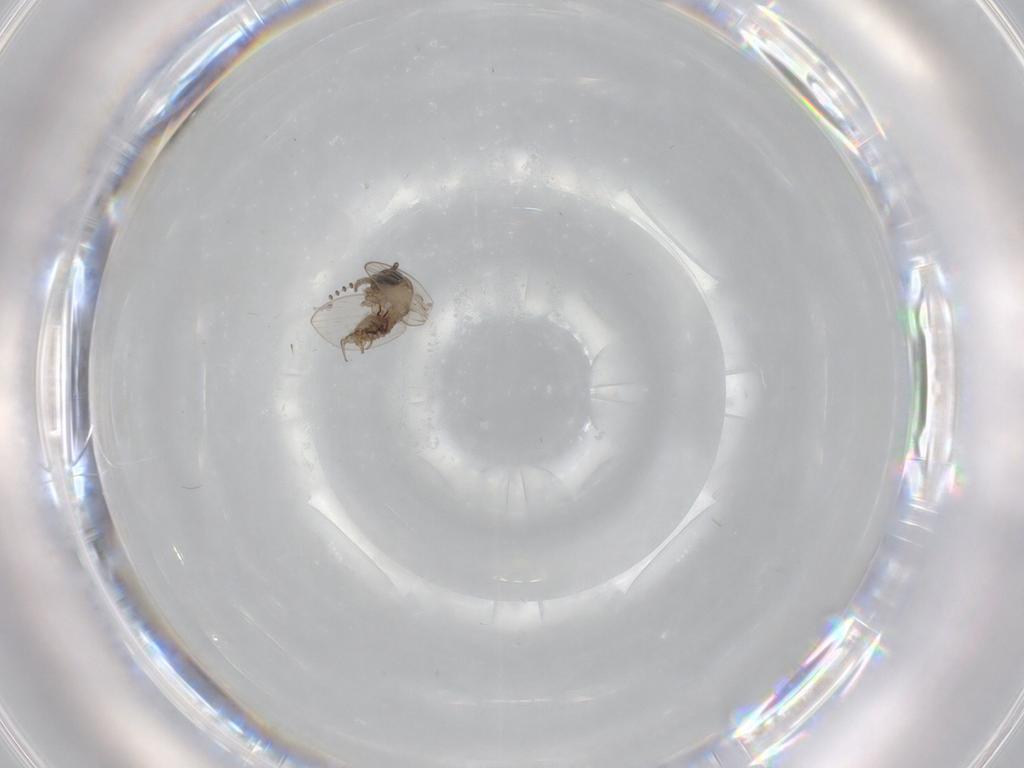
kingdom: Animalia
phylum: Arthropoda
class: Insecta
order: Diptera
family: Psychodidae
